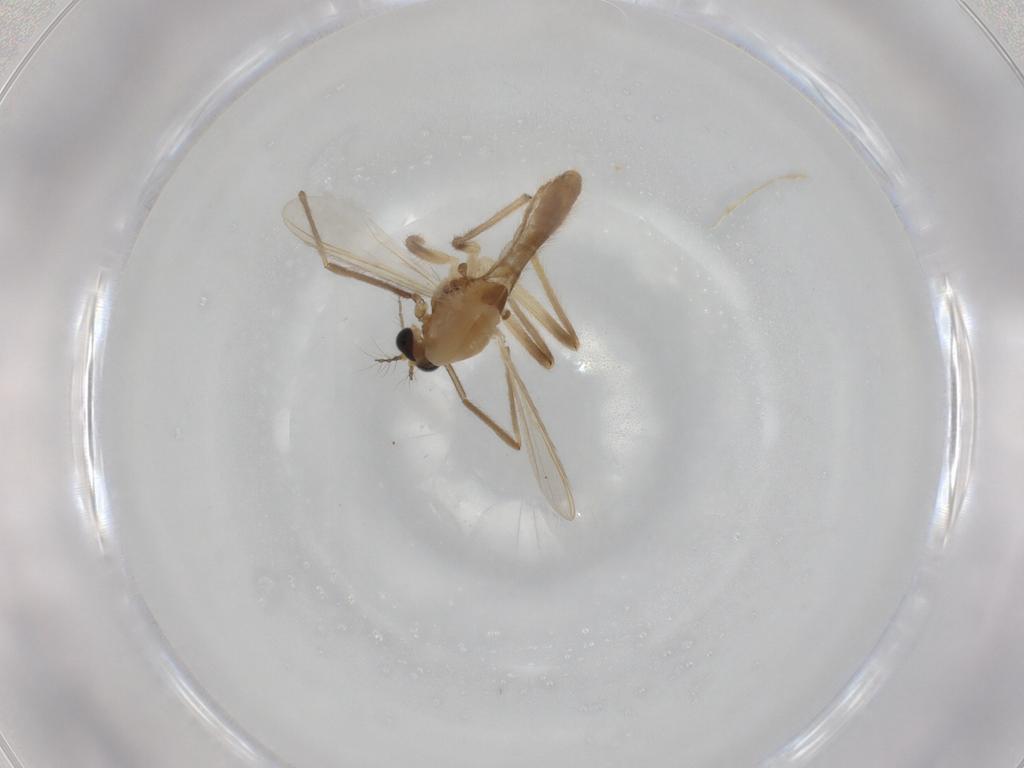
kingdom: Animalia
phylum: Arthropoda
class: Insecta
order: Diptera
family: Chironomidae
